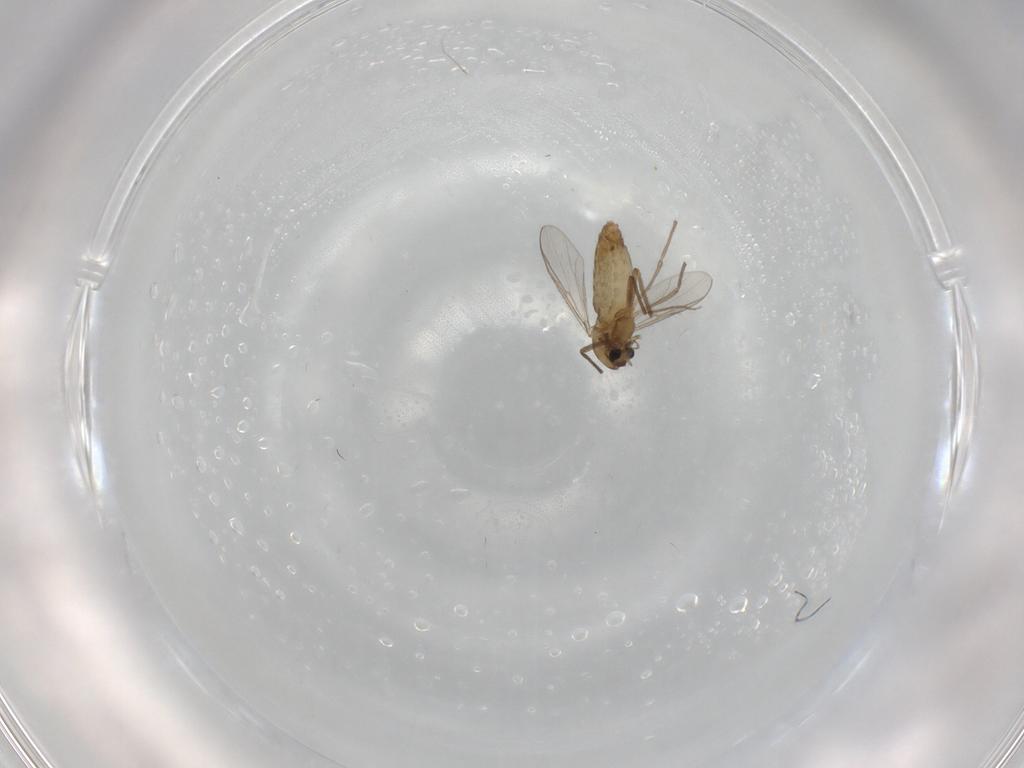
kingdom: Animalia
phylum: Arthropoda
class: Insecta
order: Diptera
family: Chironomidae
